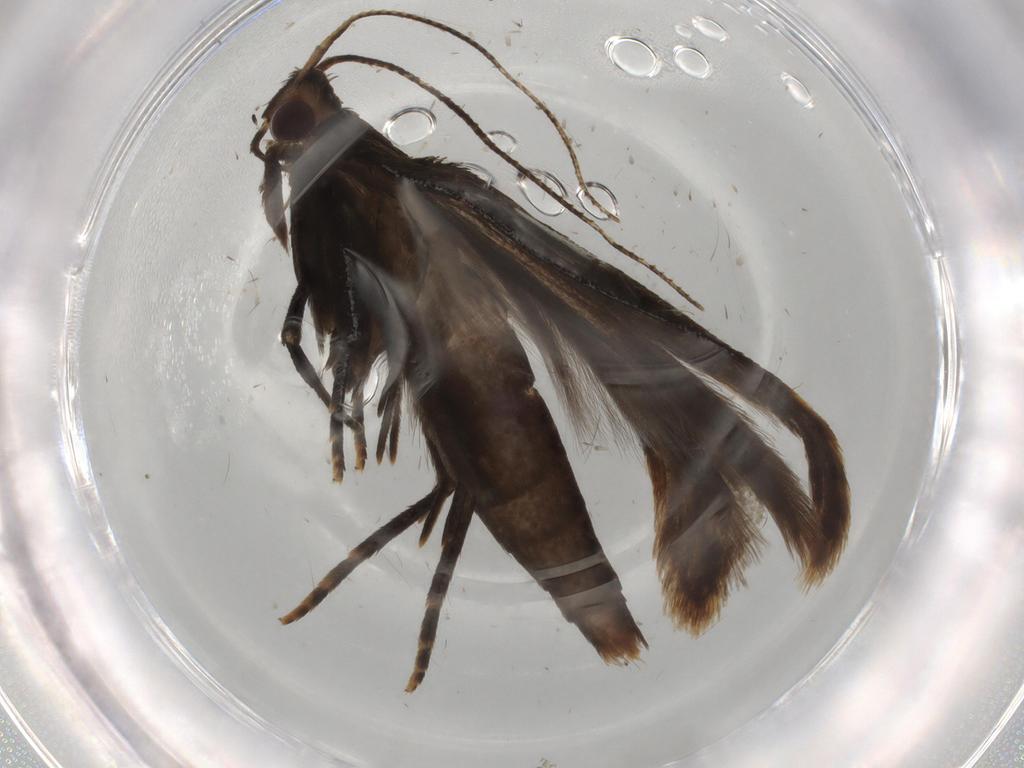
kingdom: Animalia
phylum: Arthropoda
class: Insecta
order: Lepidoptera
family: Gelechiidae
